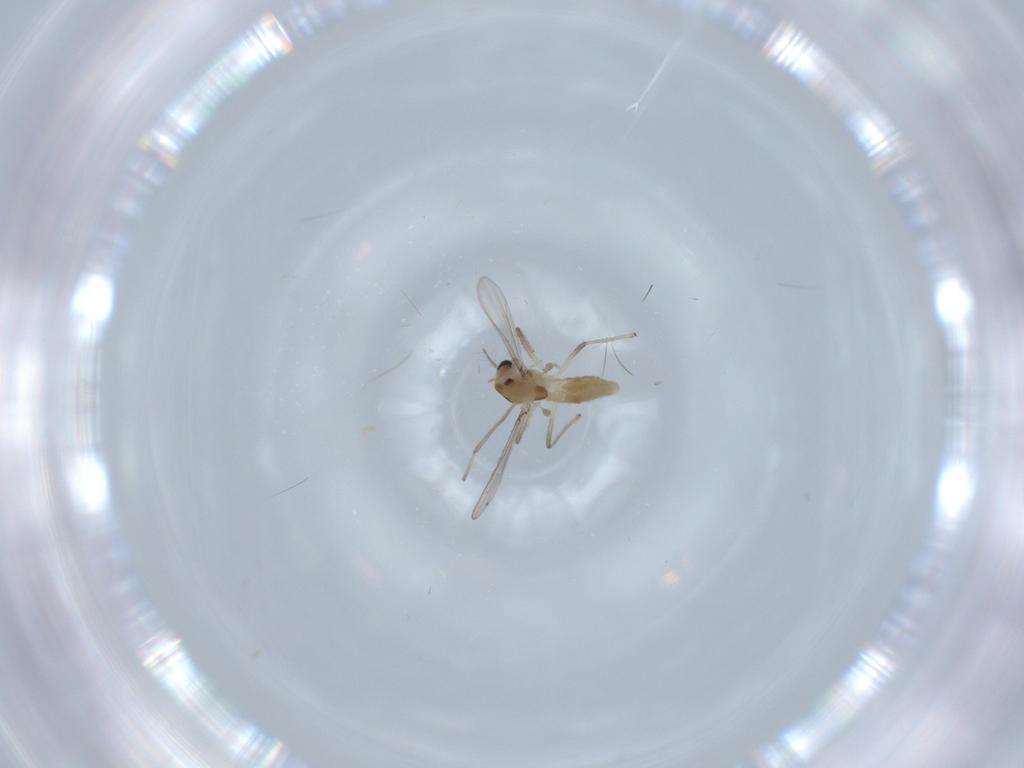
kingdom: Animalia
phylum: Arthropoda
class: Insecta
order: Diptera
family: Chironomidae
